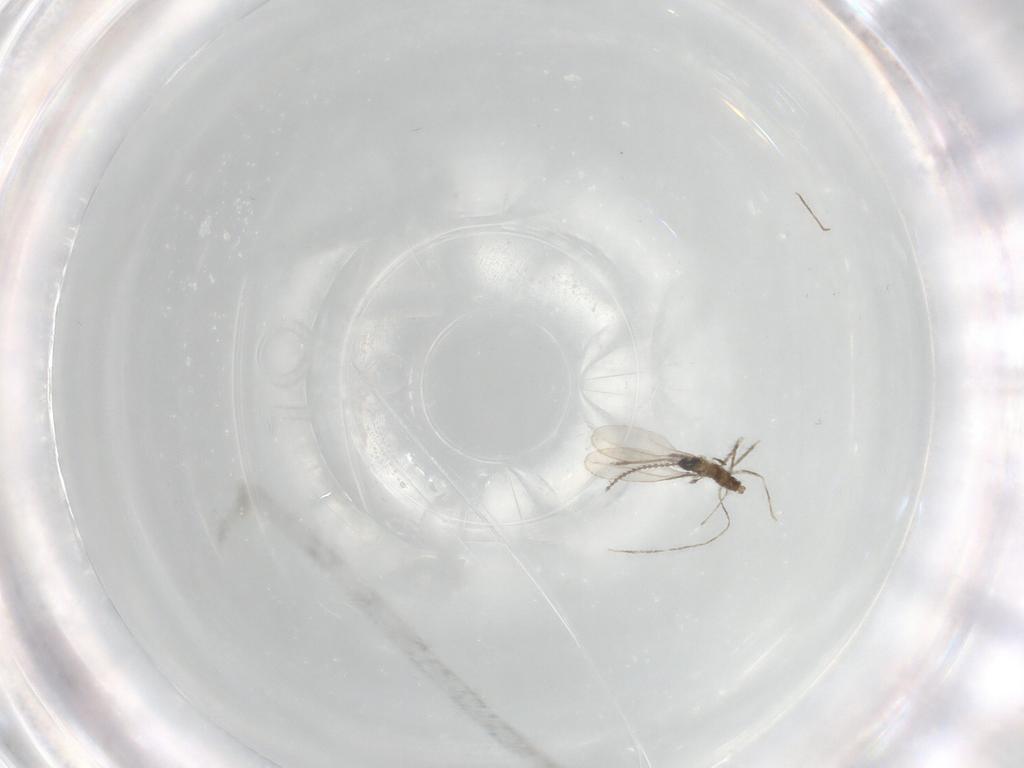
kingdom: Animalia
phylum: Arthropoda
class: Insecta
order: Diptera
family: Cecidomyiidae
